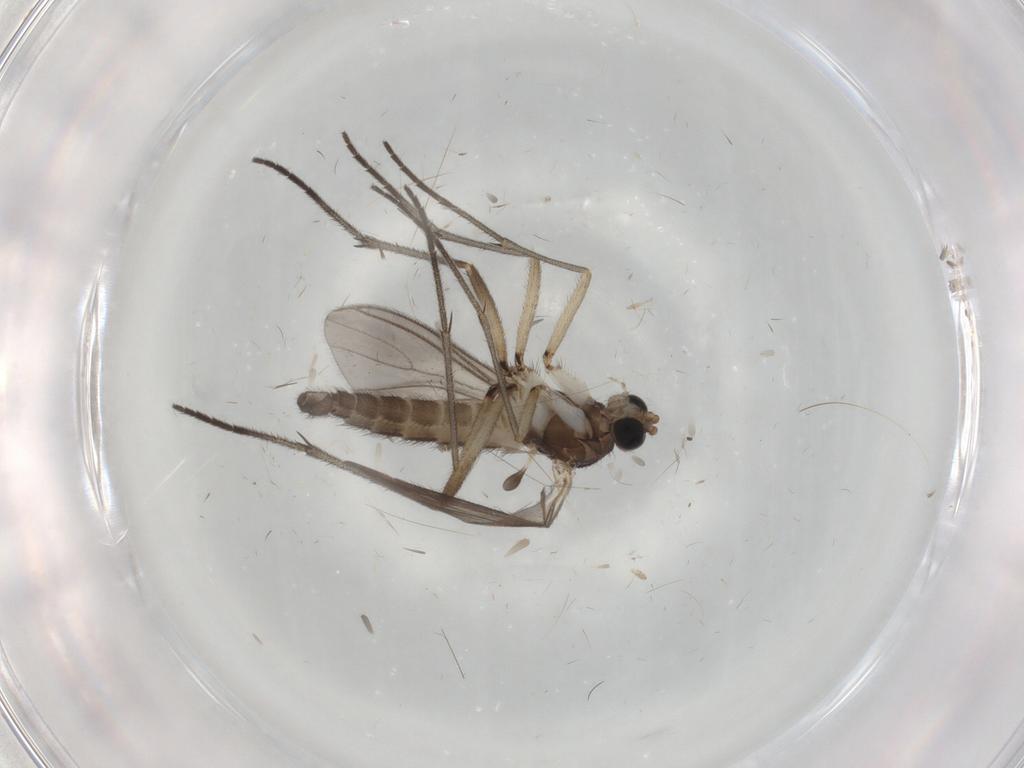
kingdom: Animalia
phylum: Arthropoda
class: Insecta
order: Diptera
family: Sciaridae
